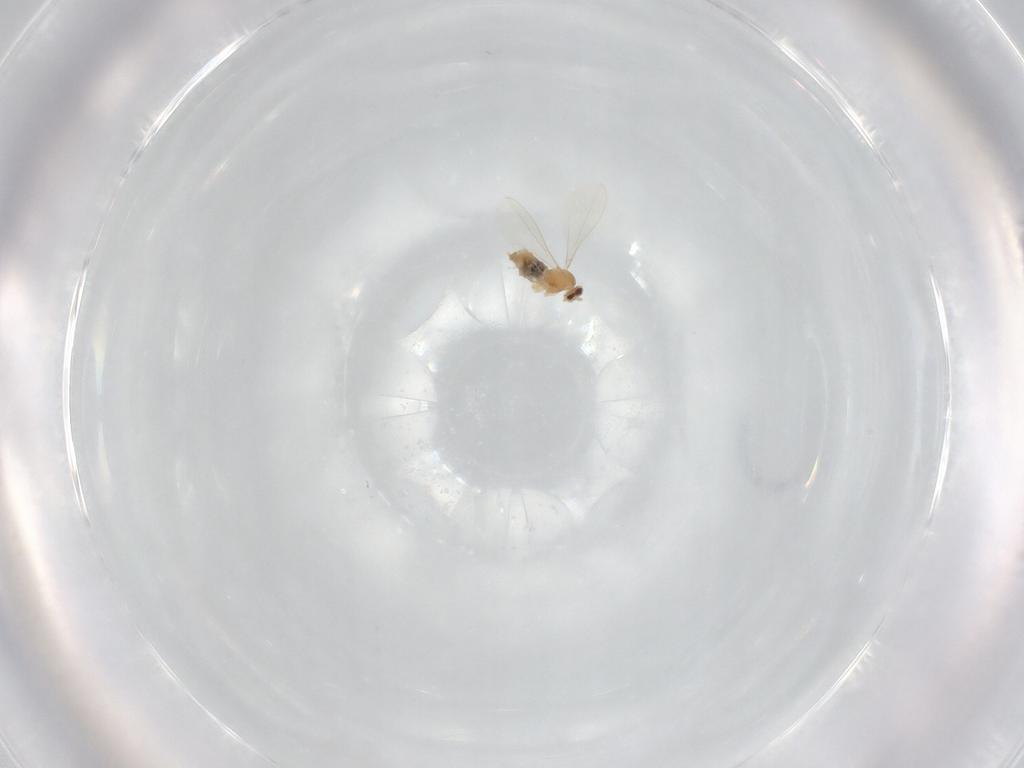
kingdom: Animalia
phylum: Arthropoda
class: Insecta
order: Diptera
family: Cecidomyiidae
